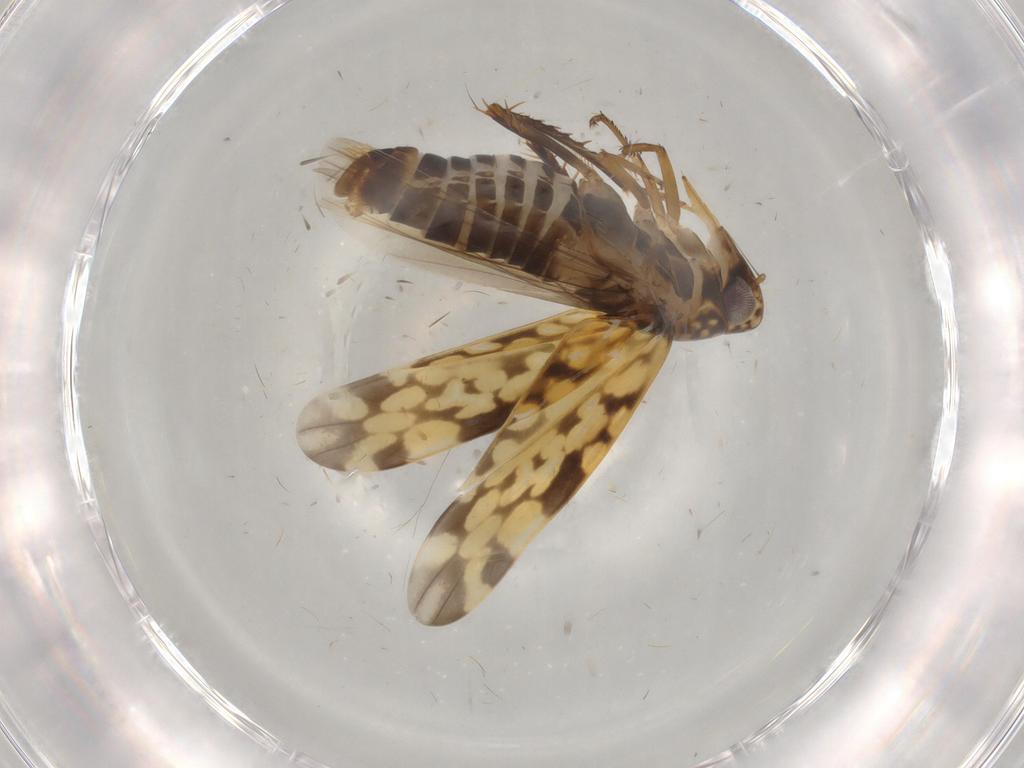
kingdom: Animalia
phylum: Arthropoda
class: Insecta
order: Hemiptera
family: Cicadellidae
